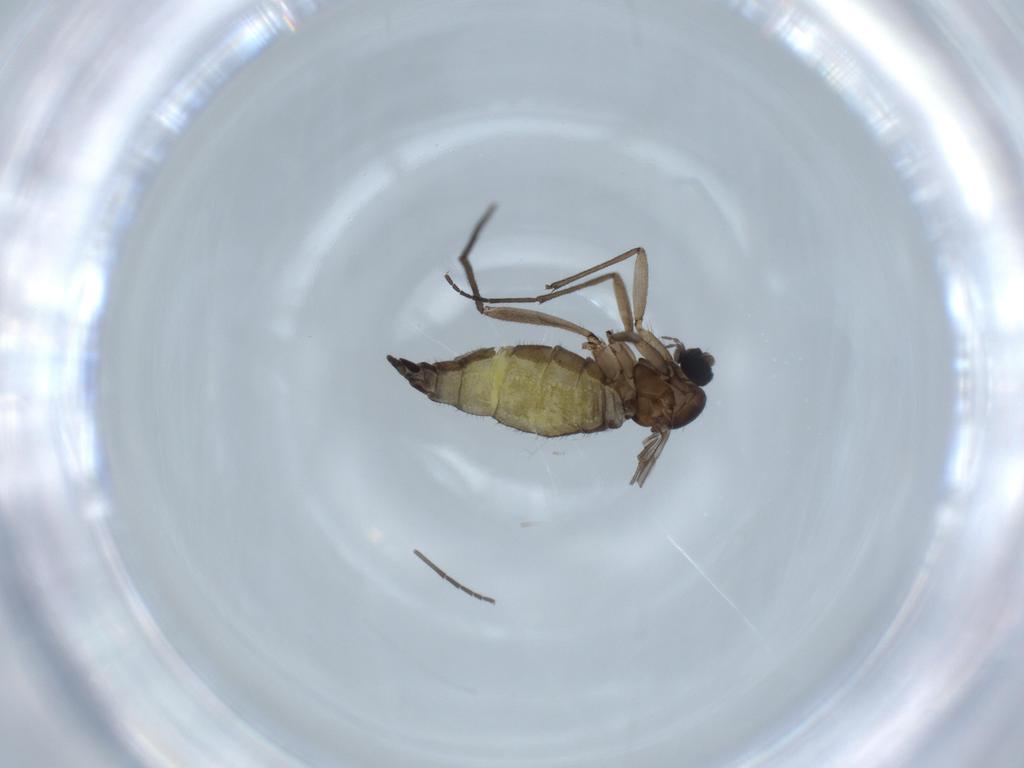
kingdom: Animalia
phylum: Arthropoda
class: Insecta
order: Diptera
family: Sciaridae
